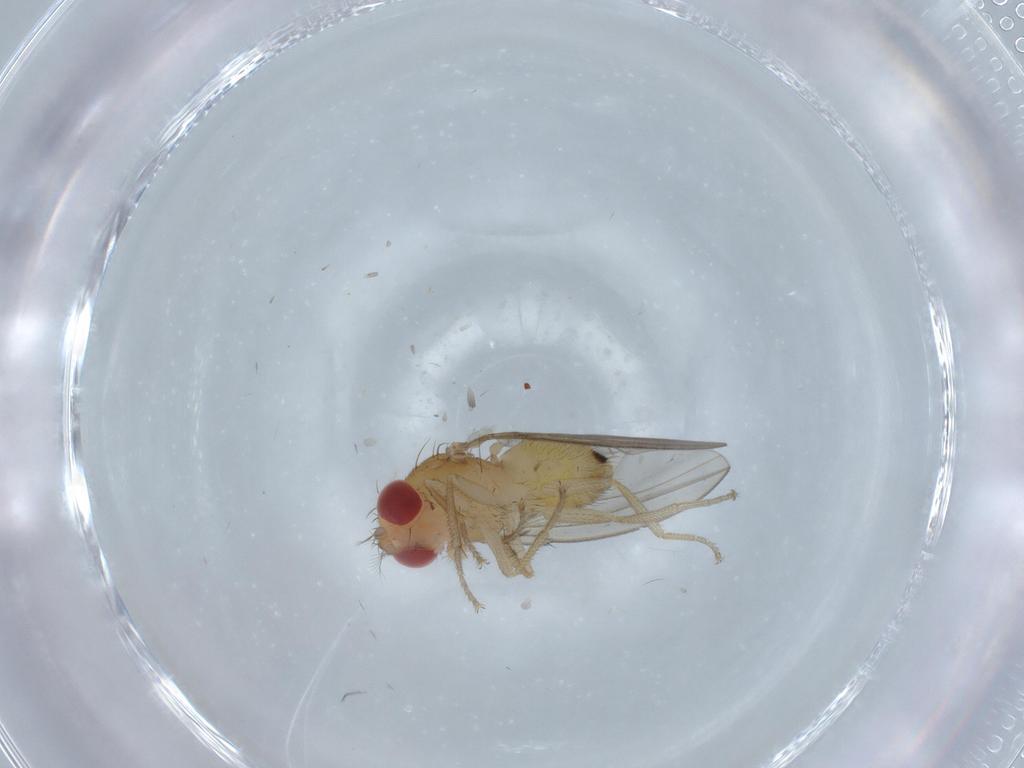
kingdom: Animalia
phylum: Arthropoda
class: Insecta
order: Diptera
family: Drosophilidae
